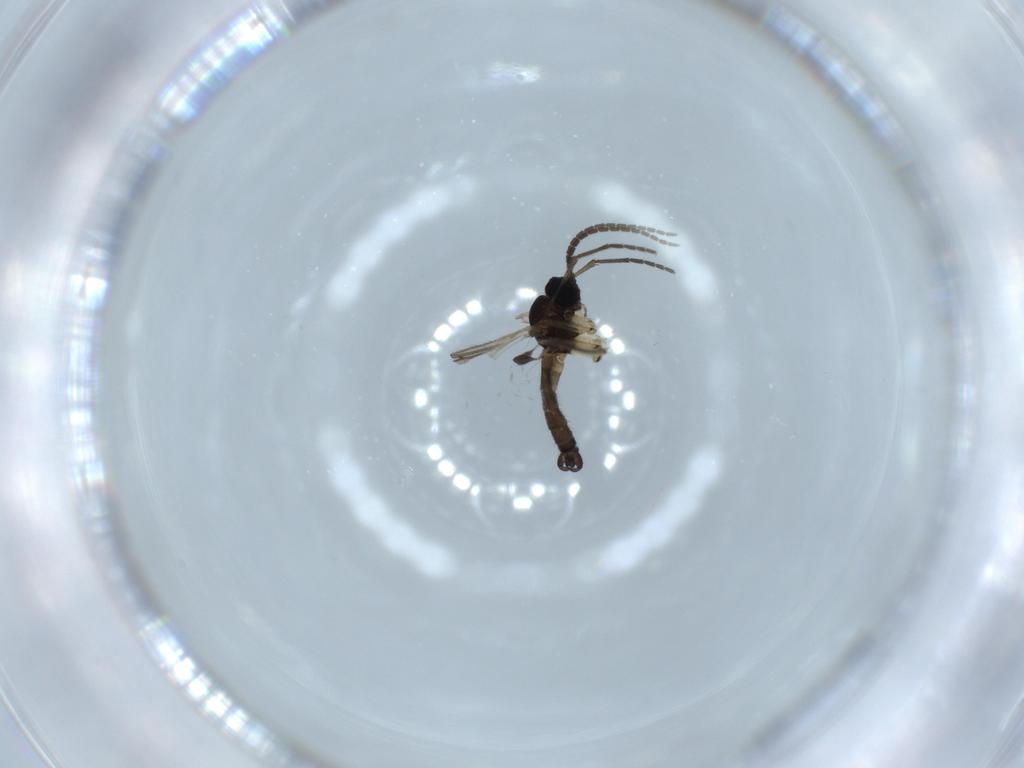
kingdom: Animalia
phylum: Arthropoda
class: Insecta
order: Diptera
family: Sciaridae
